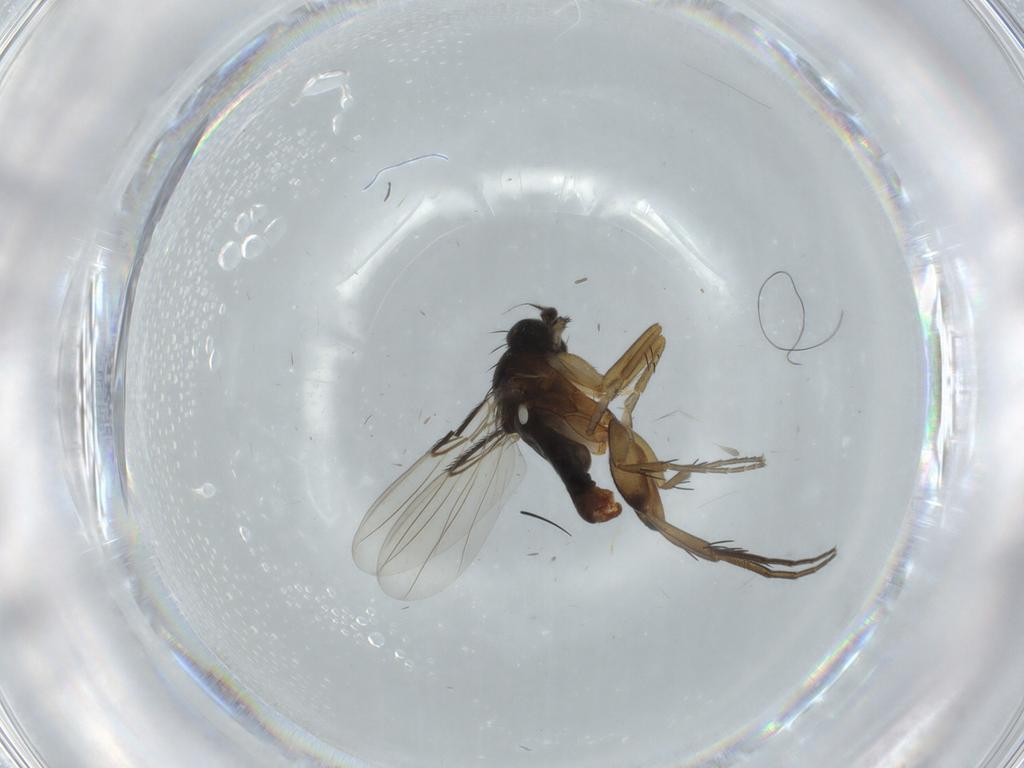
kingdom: Animalia
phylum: Arthropoda
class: Insecta
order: Diptera
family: Phoridae
